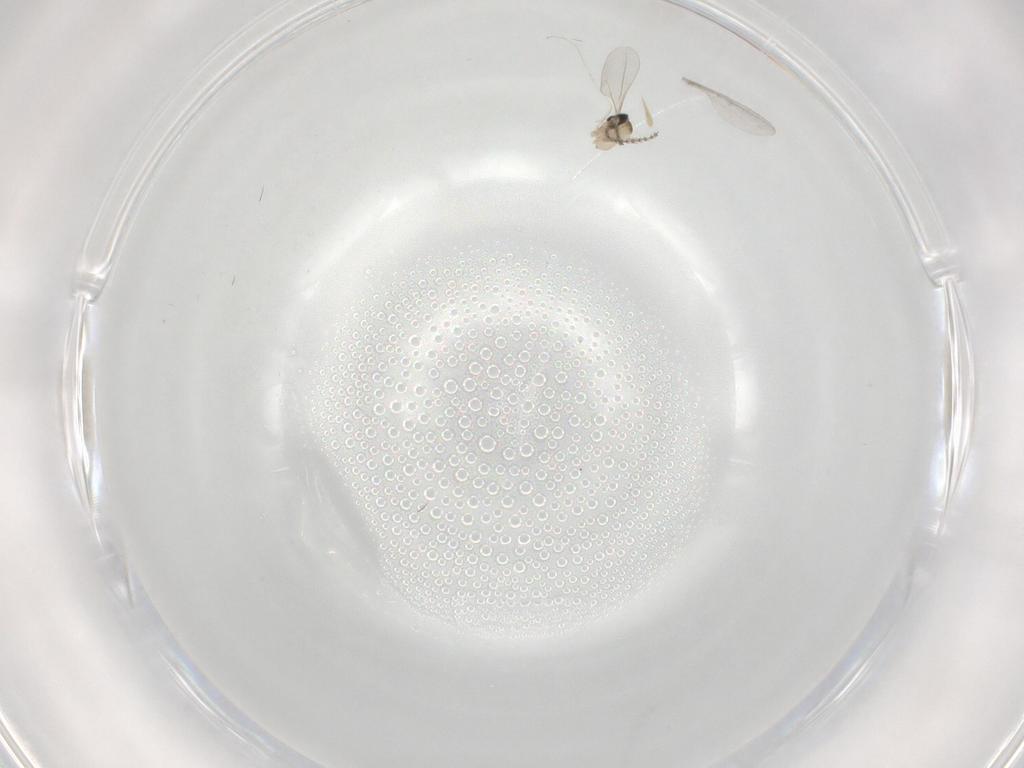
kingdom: Animalia
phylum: Arthropoda
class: Insecta
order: Diptera
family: Cecidomyiidae
